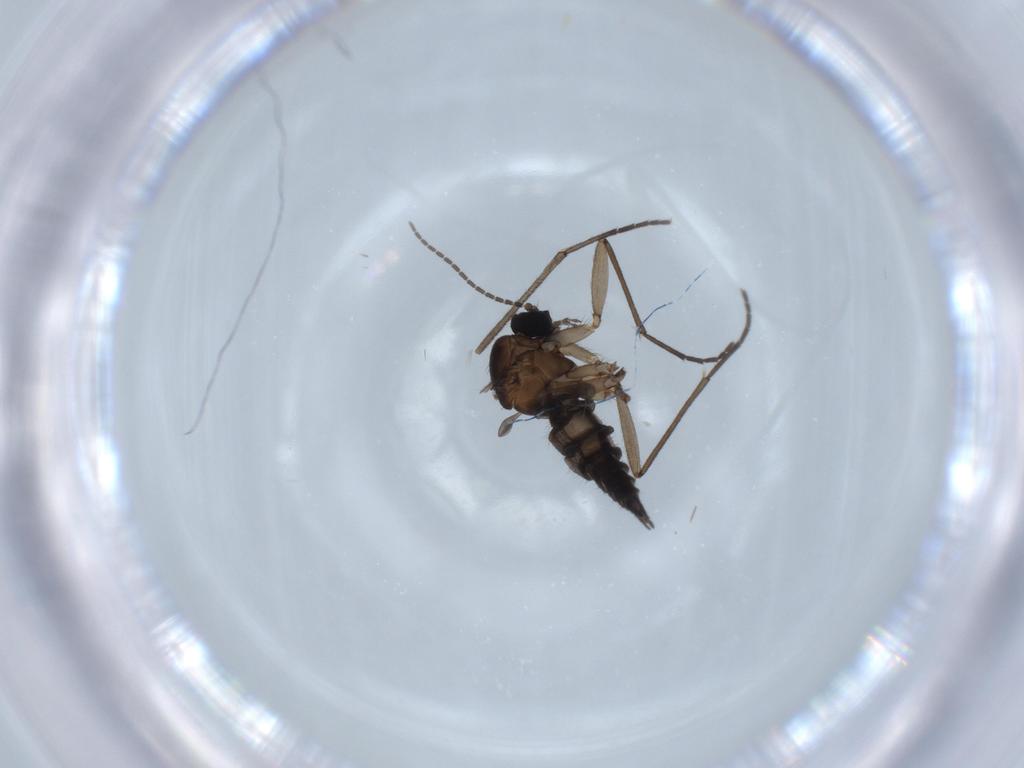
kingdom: Animalia
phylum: Arthropoda
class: Insecta
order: Diptera
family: Sciaridae
